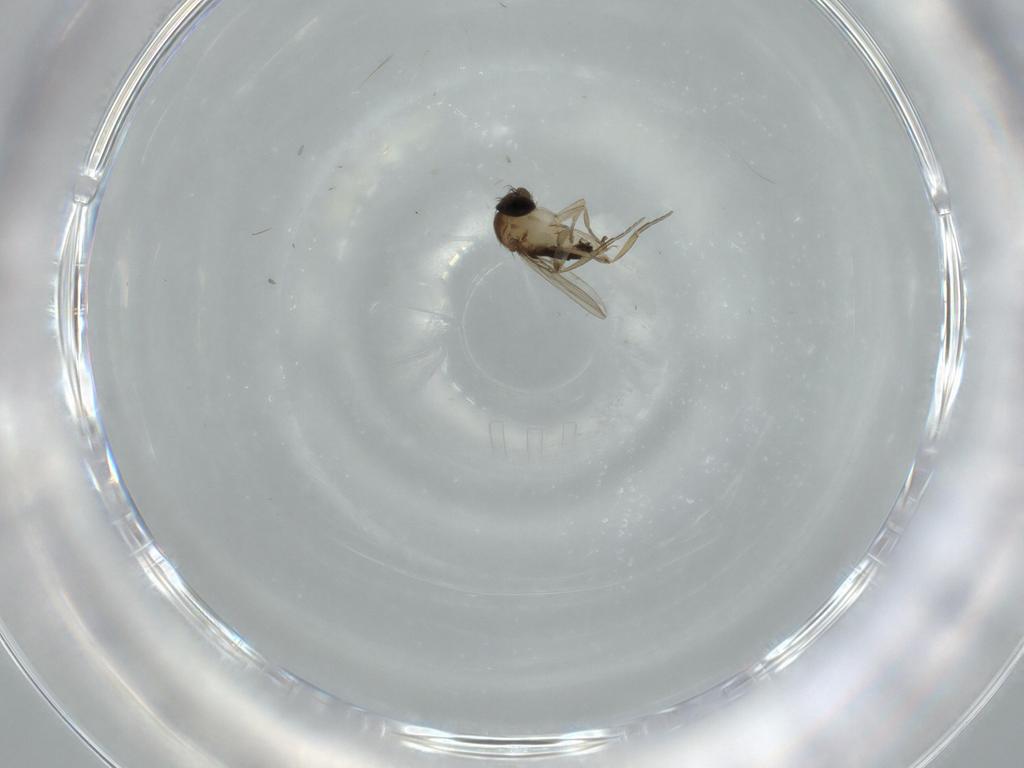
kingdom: Animalia
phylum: Arthropoda
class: Insecta
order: Diptera
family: Phoridae
